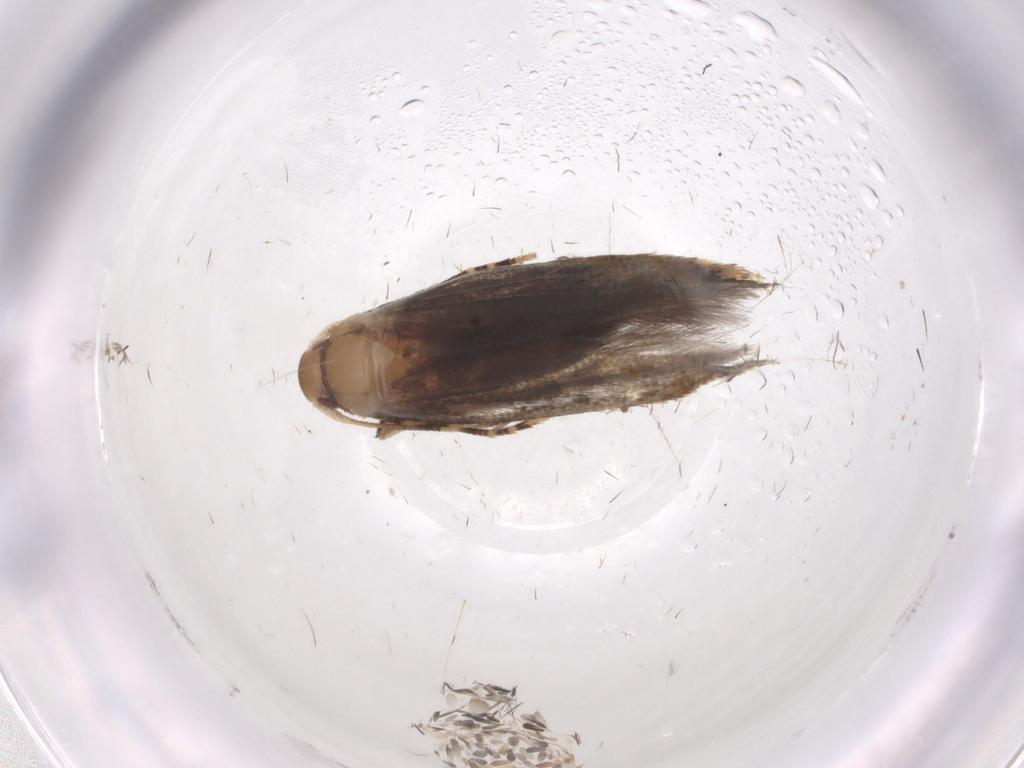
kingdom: Animalia
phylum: Arthropoda
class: Insecta
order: Lepidoptera
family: Momphidae
